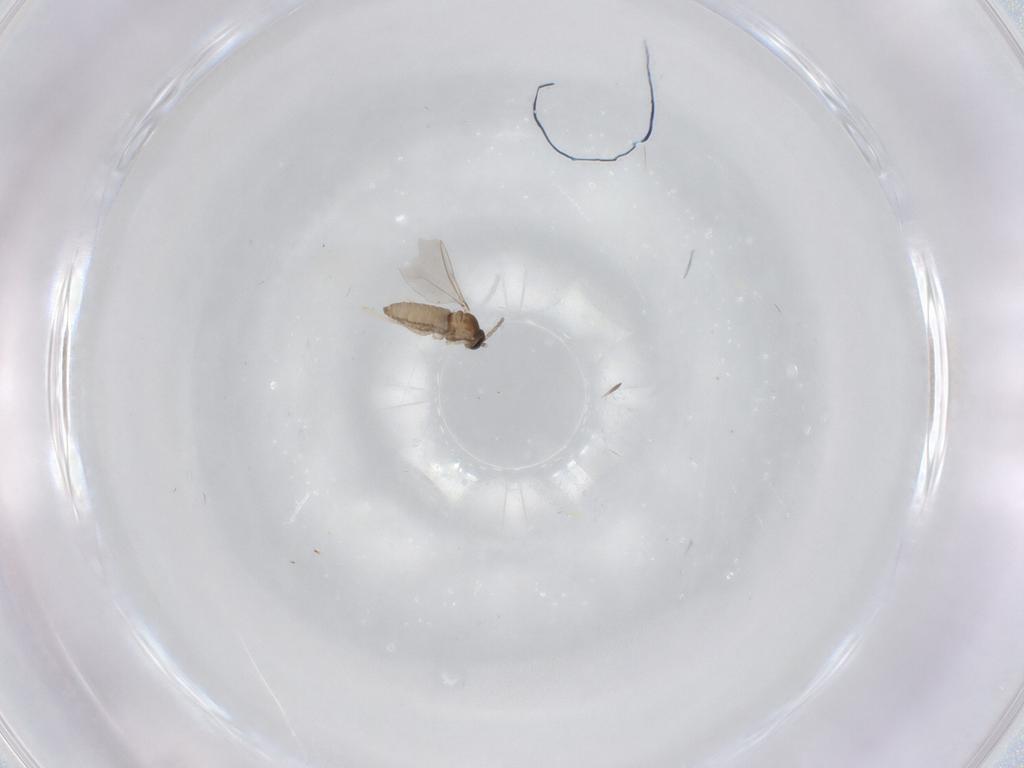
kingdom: Animalia
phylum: Arthropoda
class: Insecta
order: Diptera
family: Cecidomyiidae
